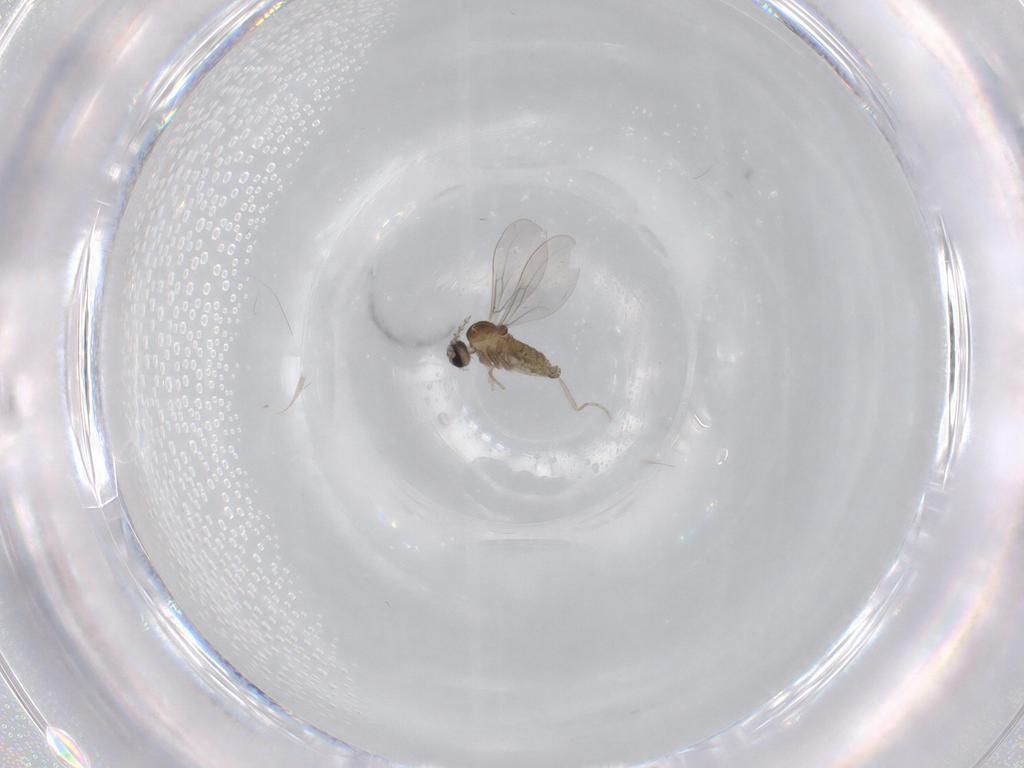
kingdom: Animalia
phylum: Arthropoda
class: Insecta
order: Diptera
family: Cecidomyiidae
